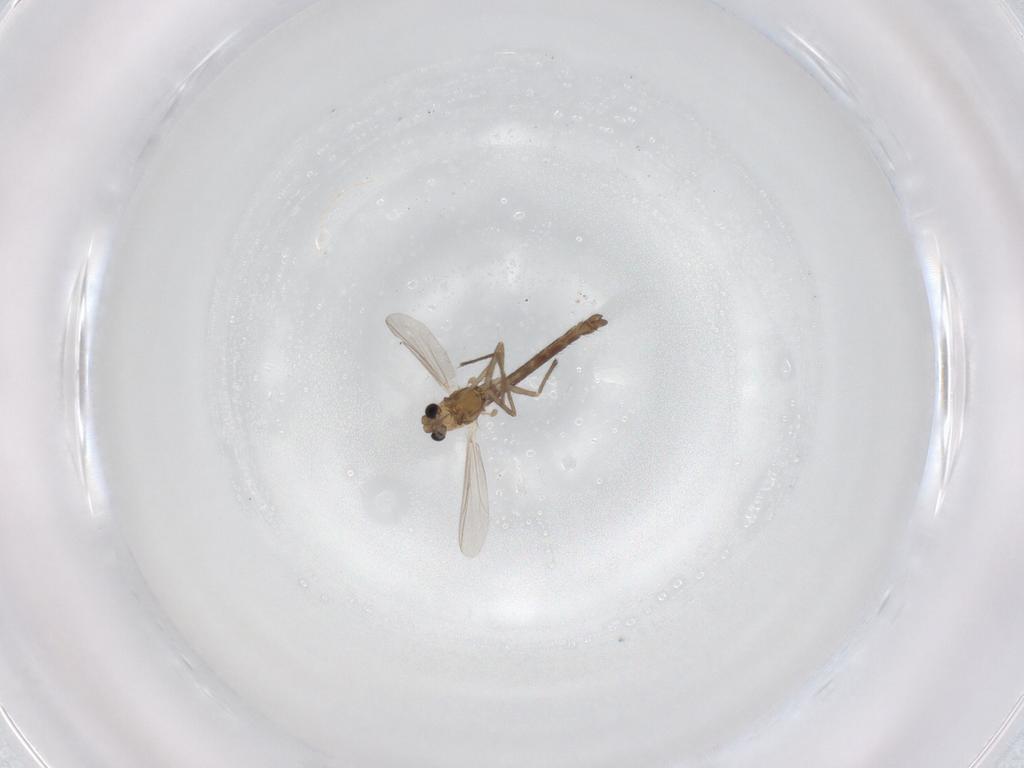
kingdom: Animalia
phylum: Arthropoda
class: Insecta
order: Diptera
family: Chironomidae
